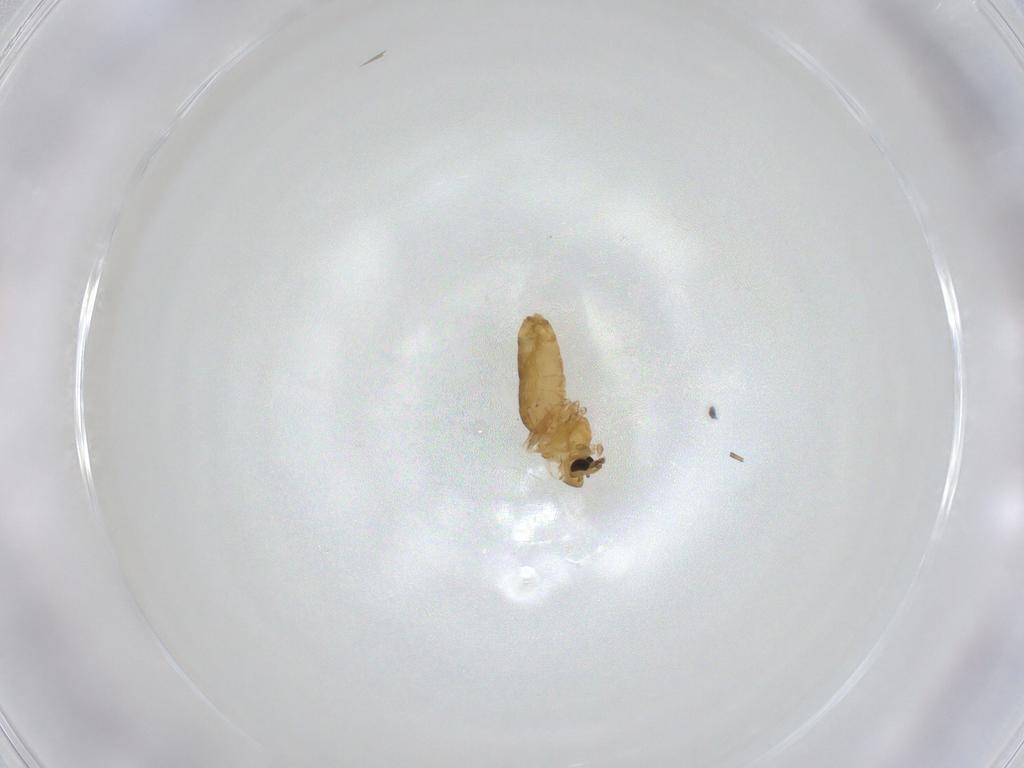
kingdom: Animalia
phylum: Arthropoda
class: Insecta
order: Diptera
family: Chironomidae
